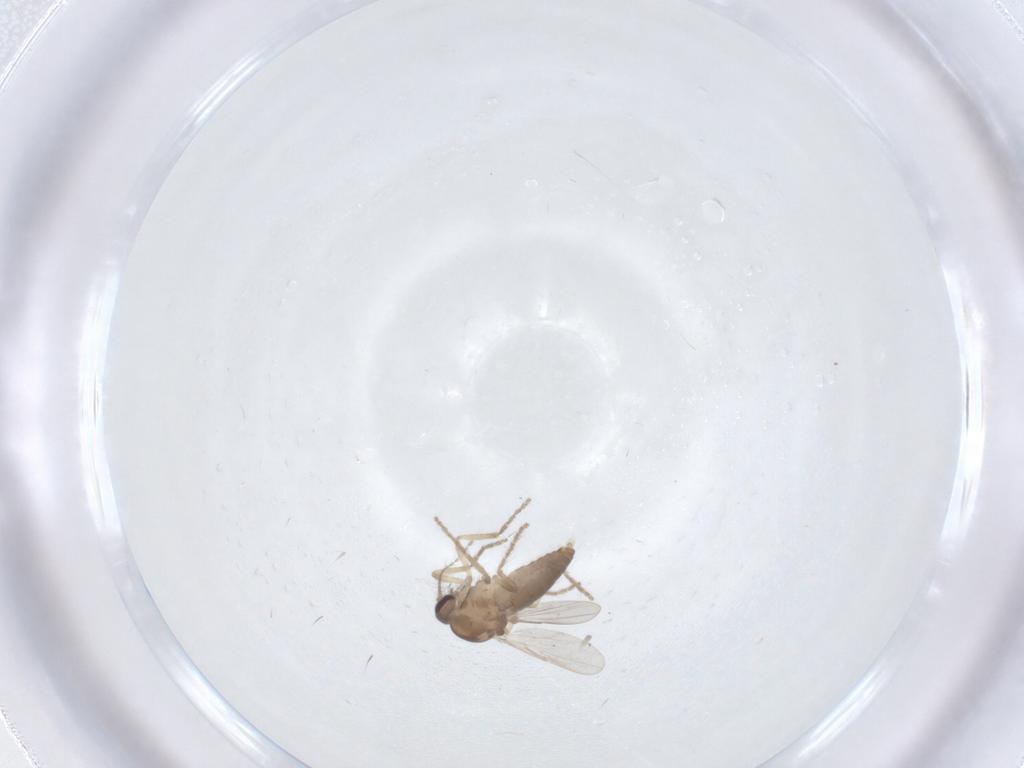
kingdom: Animalia
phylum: Arthropoda
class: Insecta
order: Diptera
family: Ceratopogonidae
